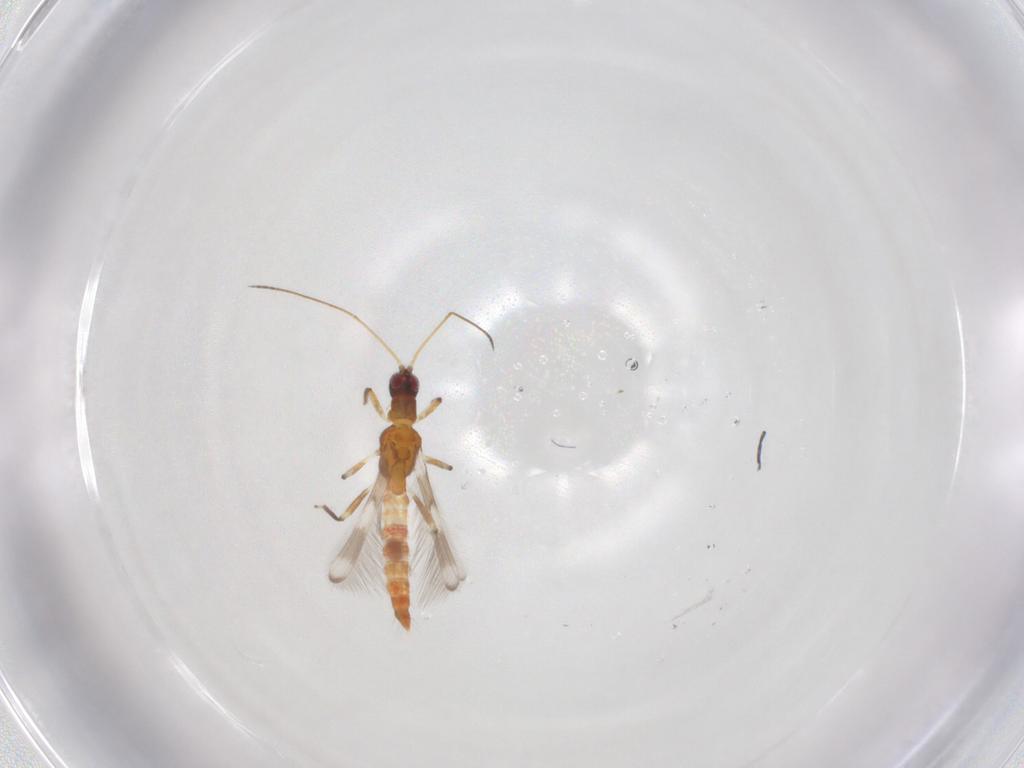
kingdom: Animalia
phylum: Arthropoda
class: Insecta
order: Thysanoptera
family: Aeolothripidae
